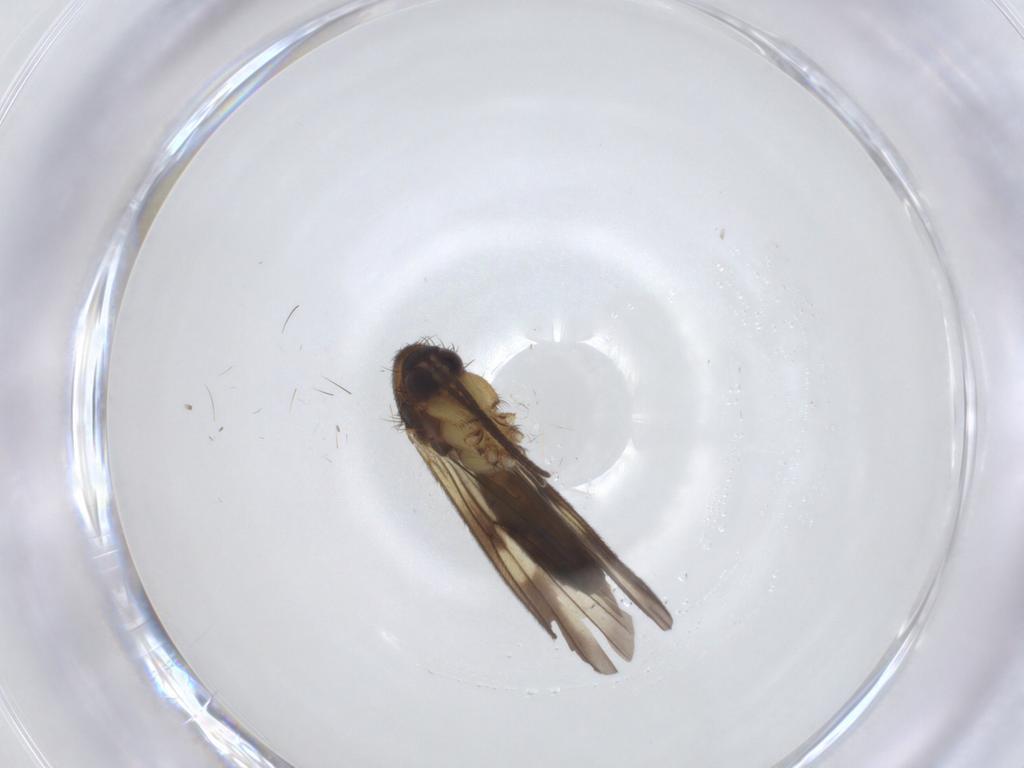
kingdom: Animalia
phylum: Arthropoda
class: Insecta
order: Diptera
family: Mycetophilidae
